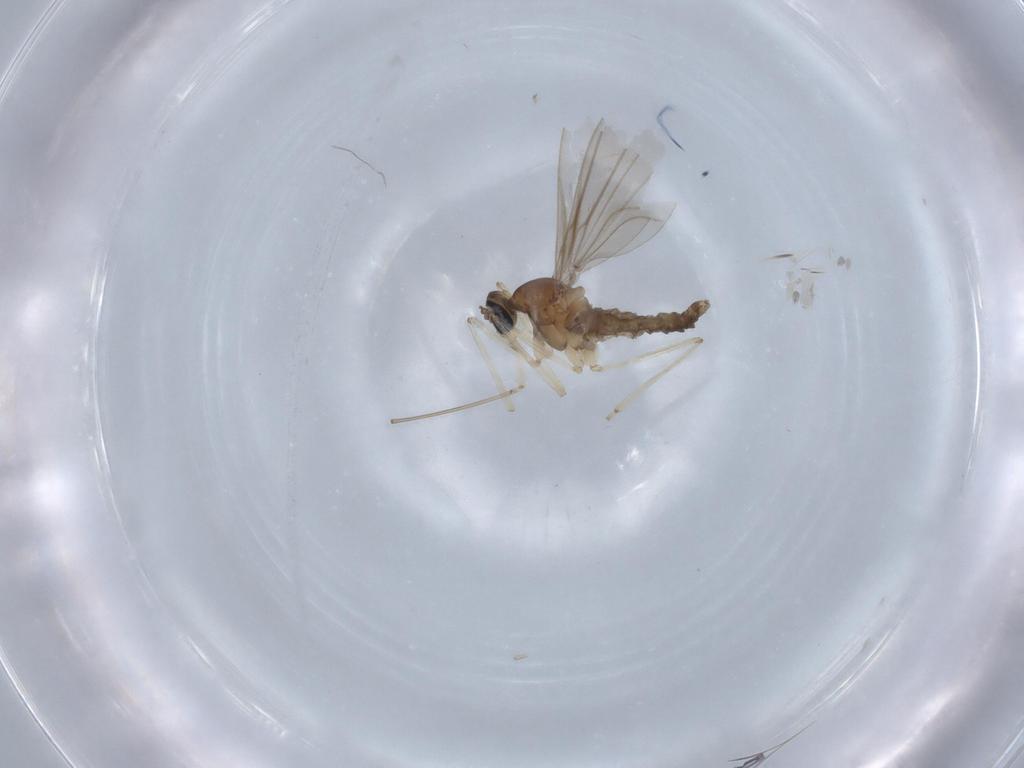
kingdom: Animalia
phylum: Arthropoda
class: Insecta
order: Diptera
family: Cecidomyiidae
